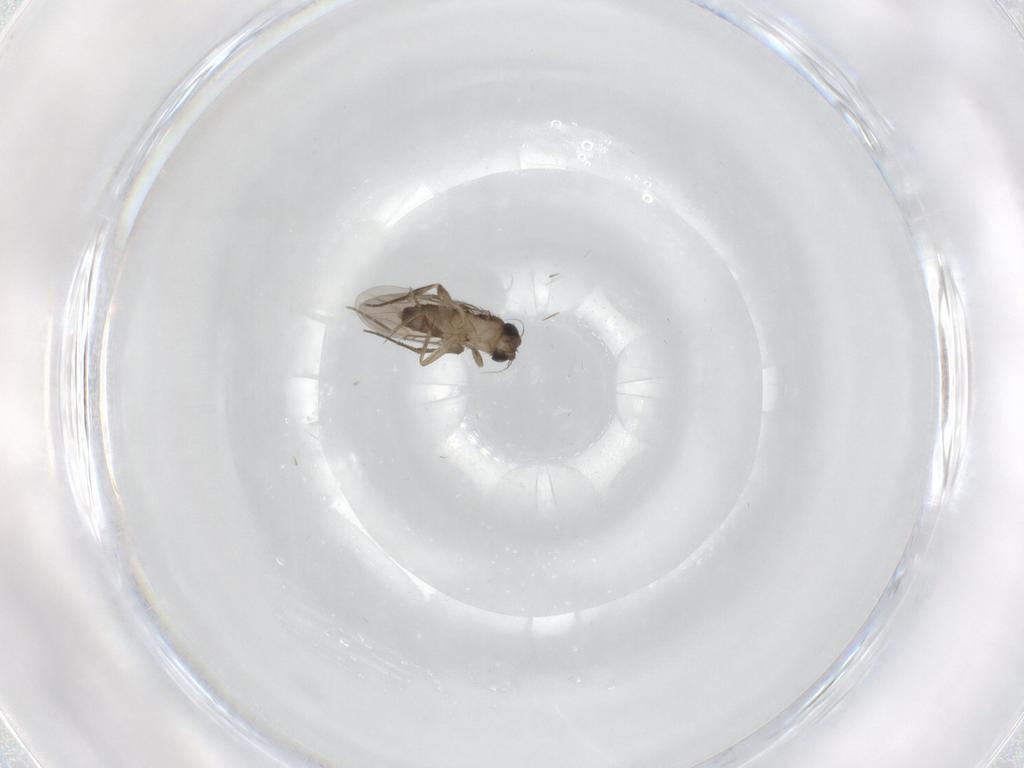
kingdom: Animalia
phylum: Arthropoda
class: Insecta
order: Diptera
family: Phoridae
